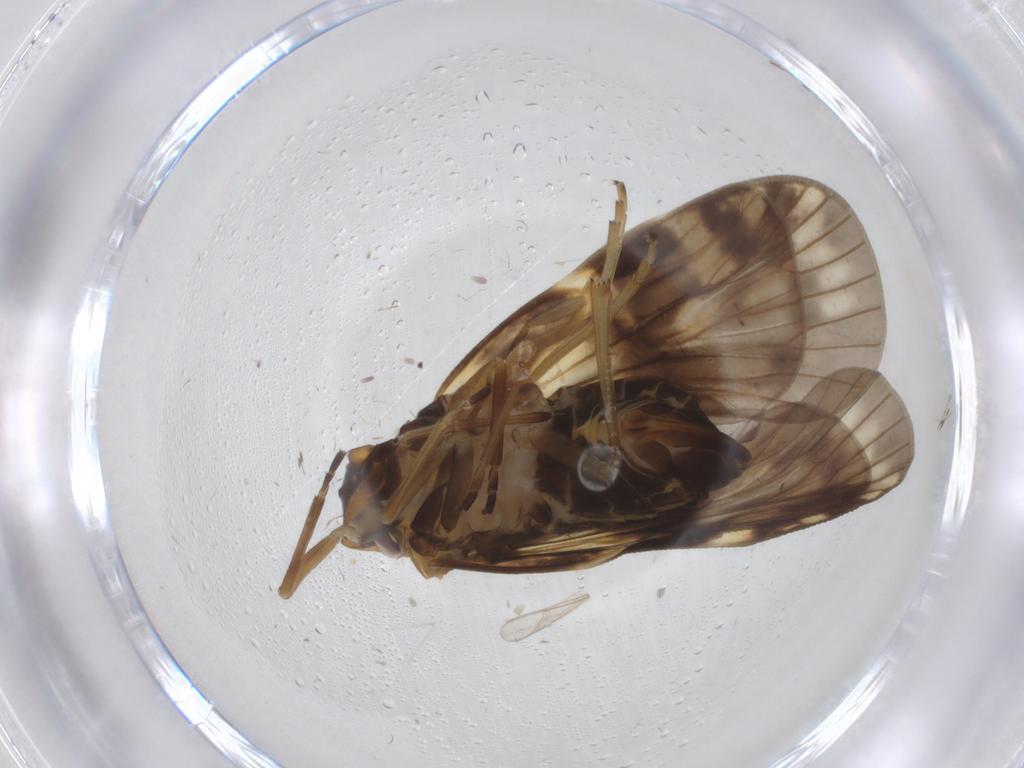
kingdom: Animalia
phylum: Arthropoda
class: Insecta
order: Hemiptera
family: Cixiidae
